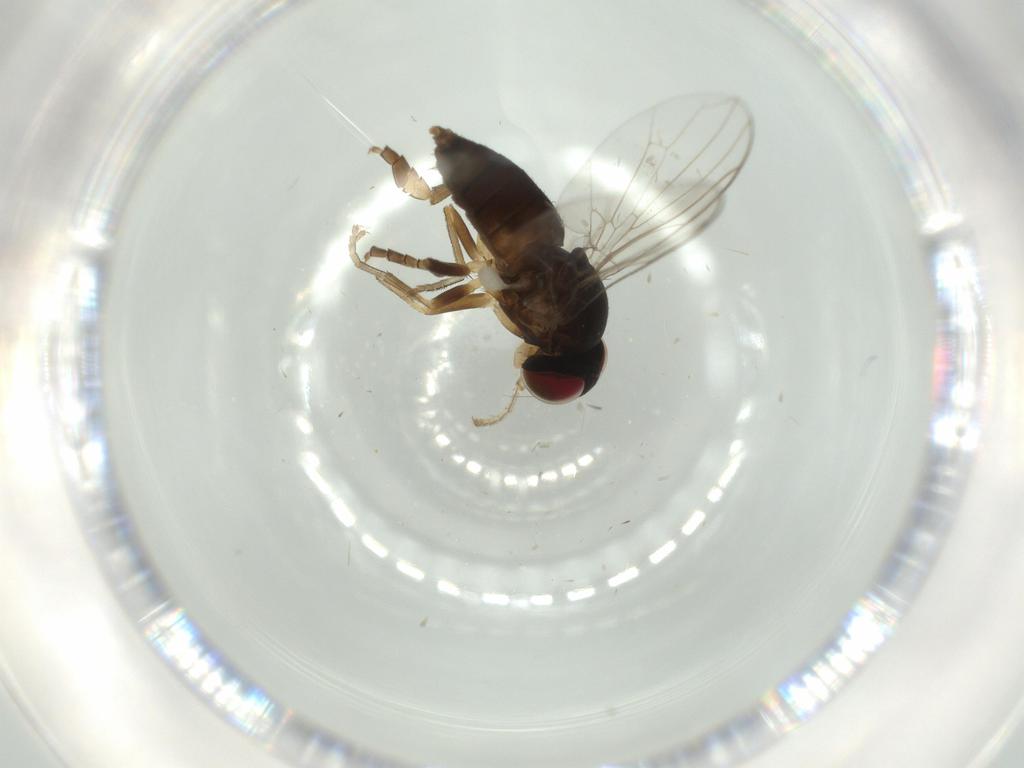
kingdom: Animalia
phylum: Arthropoda
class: Insecta
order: Diptera
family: Platypezidae
